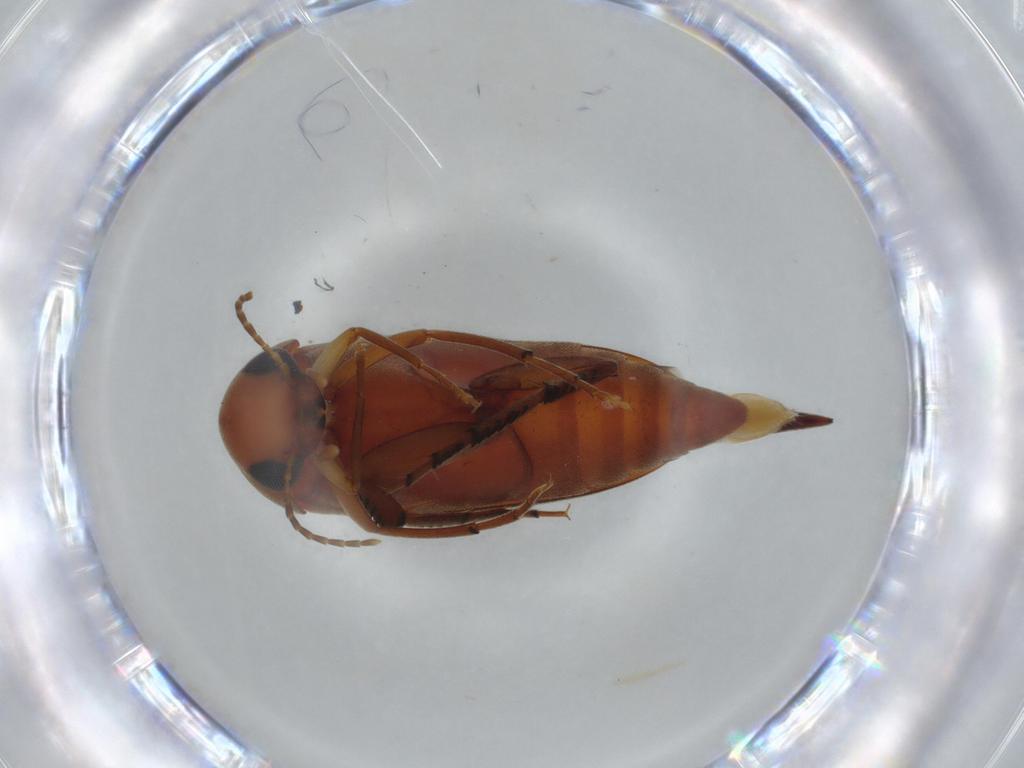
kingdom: Animalia
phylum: Arthropoda
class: Insecta
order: Coleoptera
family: Mordellidae
